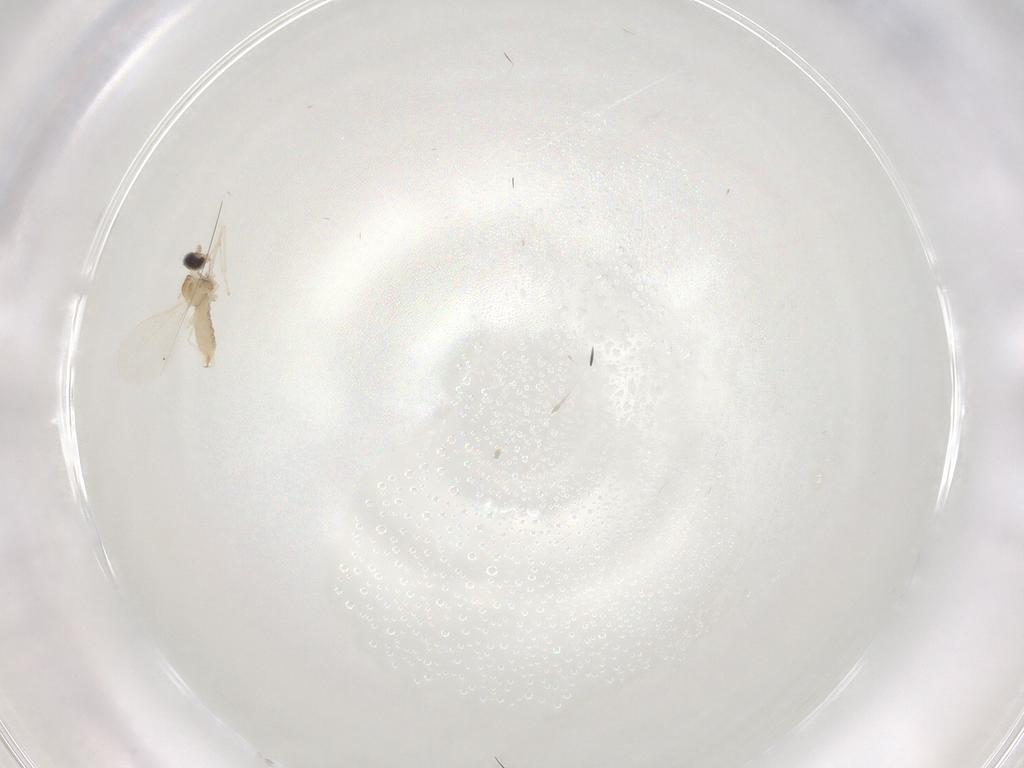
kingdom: Animalia
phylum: Arthropoda
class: Insecta
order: Diptera
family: Cecidomyiidae
